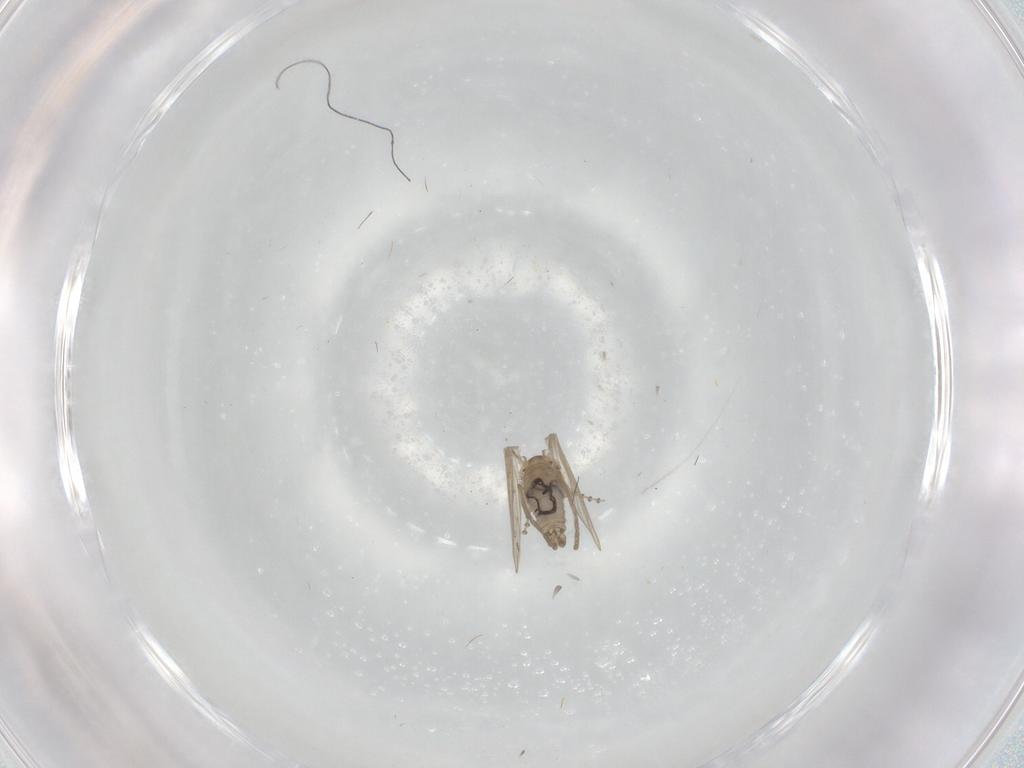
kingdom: Animalia
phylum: Arthropoda
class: Insecta
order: Diptera
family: Psychodidae
